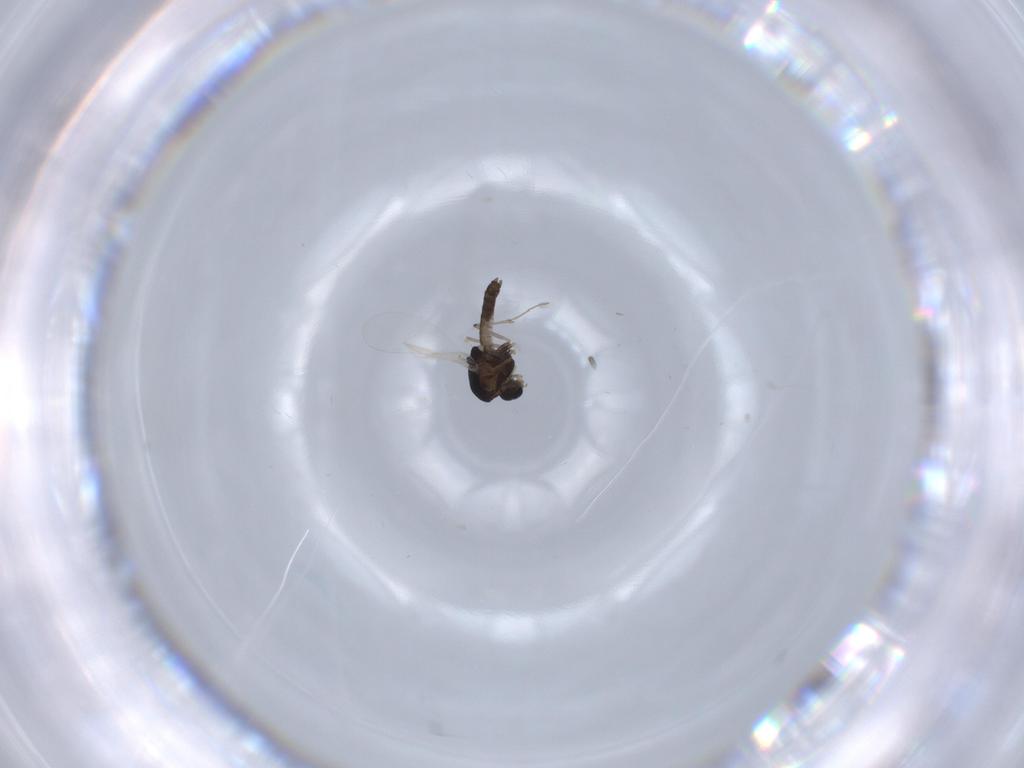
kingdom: Animalia
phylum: Arthropoda
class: Insecta
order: Diptera
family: Chironomidae
